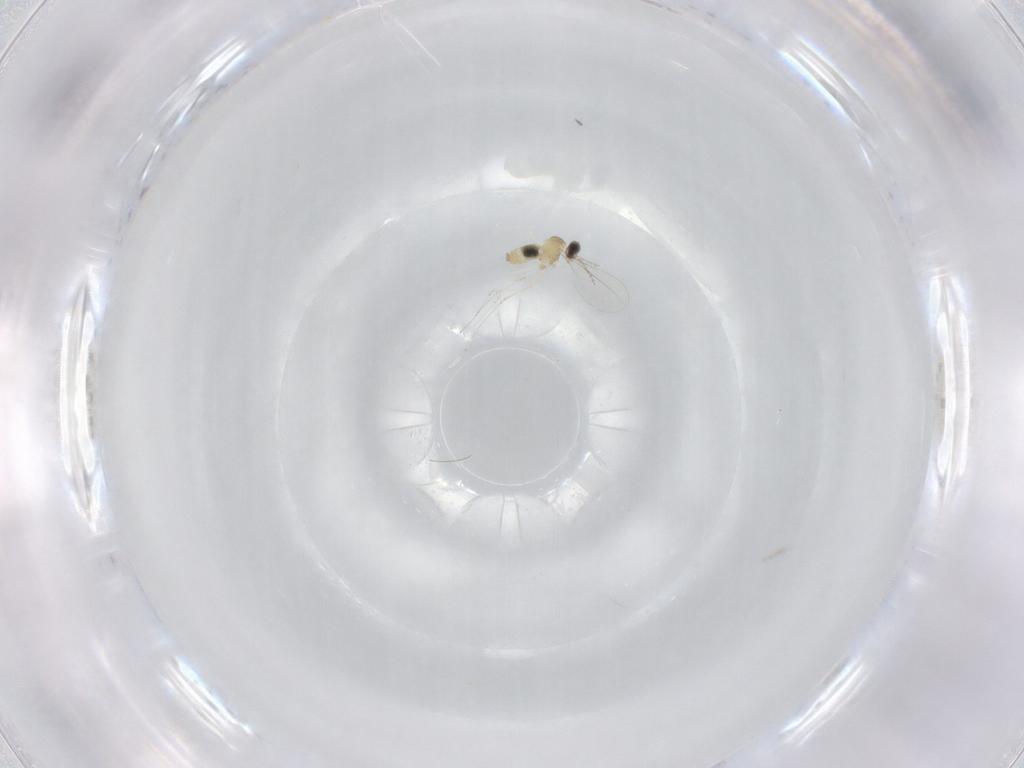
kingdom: Animalia
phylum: Arthropoda
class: Insecta
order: Diptera
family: Cecidomyiidae
